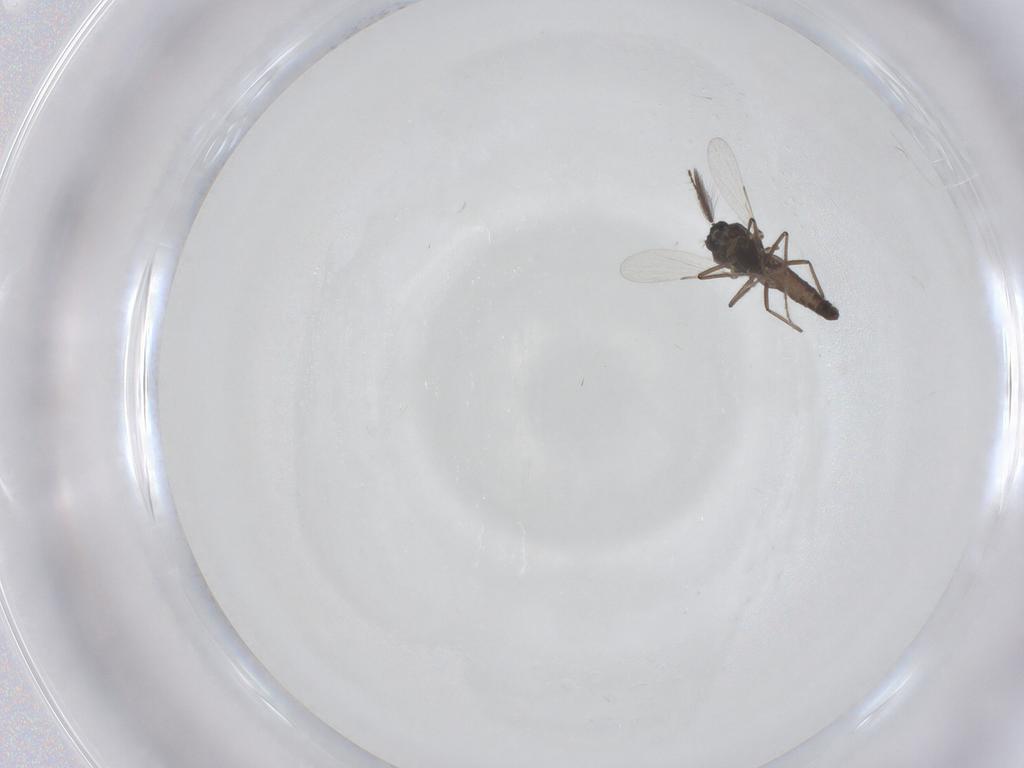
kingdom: Animalia
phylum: Arthropoda
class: Insecta
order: Diptera
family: Ceratopogonidae
